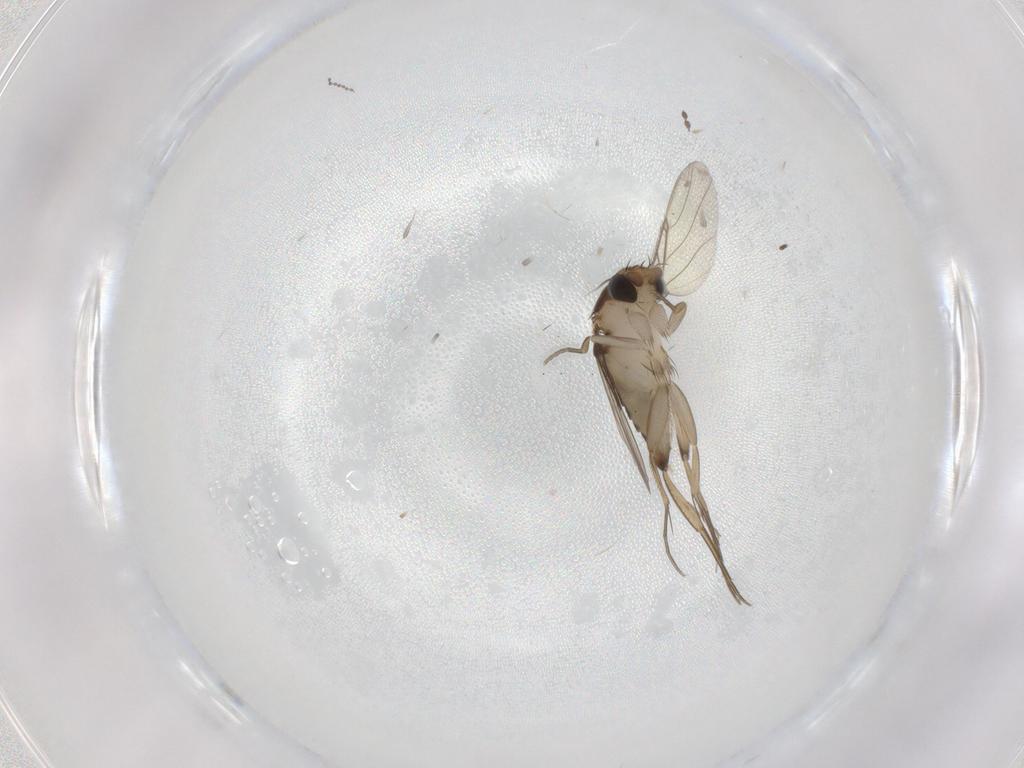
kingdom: Animalia
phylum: Arthropoda
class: Insecta
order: Diptera
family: Phoridae
